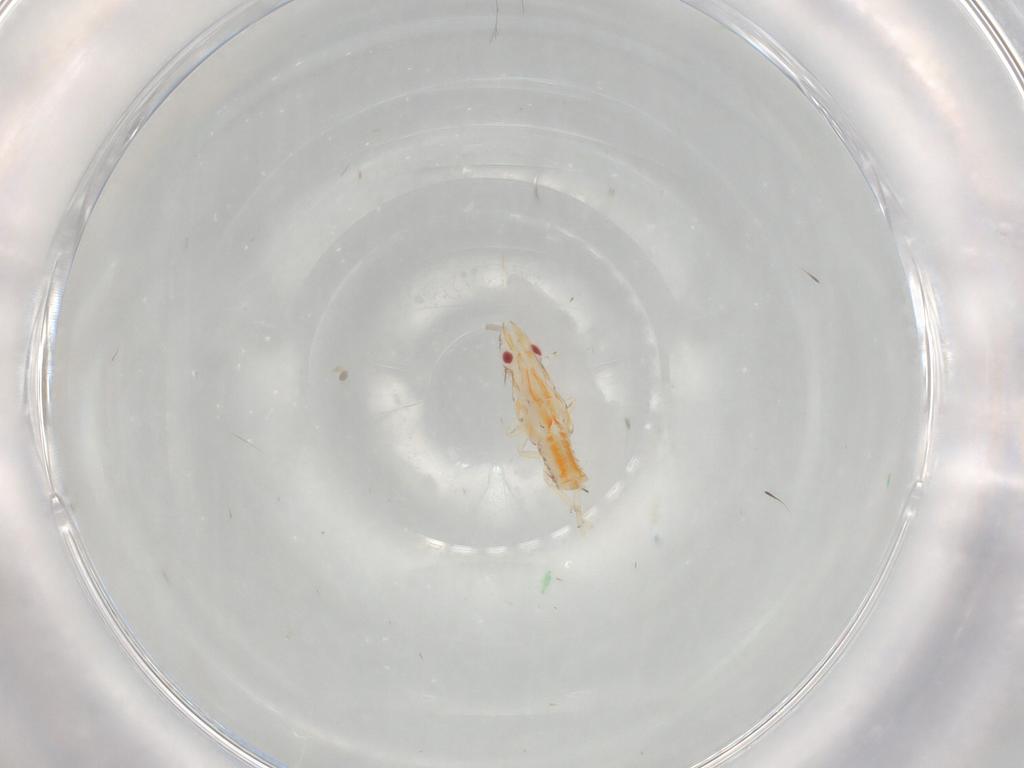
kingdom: Animalia
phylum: Arthropoda
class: Insecta
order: Hemiptera
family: Fulgoroidea_incertae_sedis
